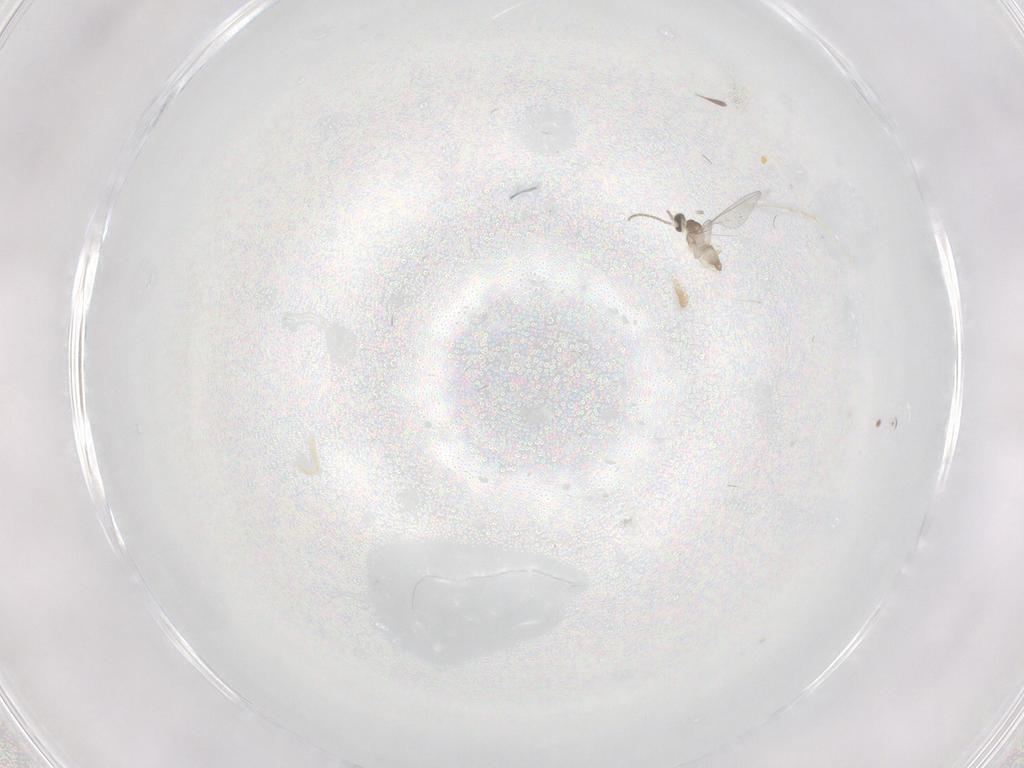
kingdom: Animalia
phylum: Arthropoda
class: Insecta
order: Diptera
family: Cecidomyiidae
